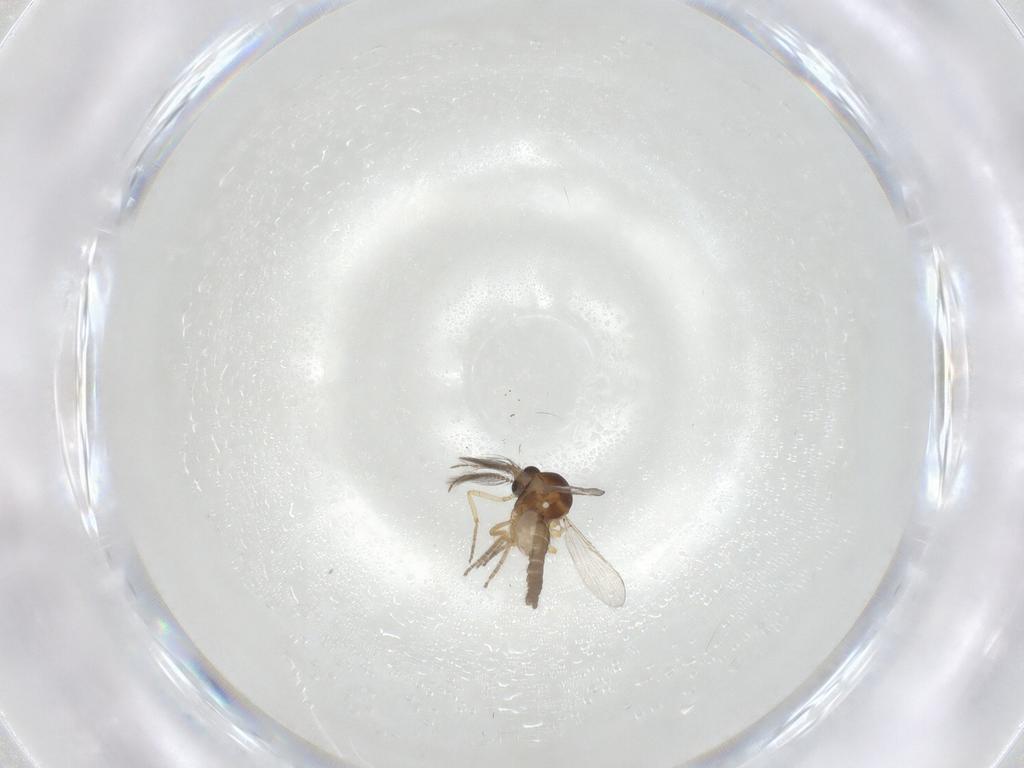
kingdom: Animalia
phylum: Arthropoda
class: Insecta
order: Diptera
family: Ceratopogonidae
